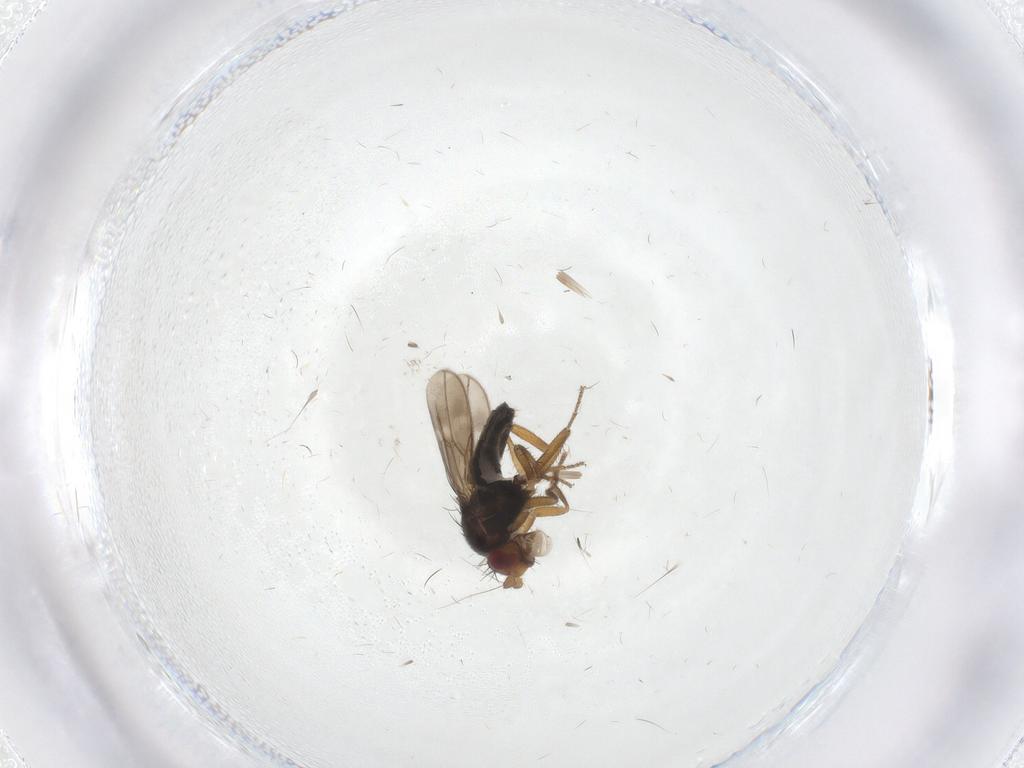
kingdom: Animalia
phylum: Arthropoda
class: Insecta
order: Diptera
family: Sphaeroceridae
